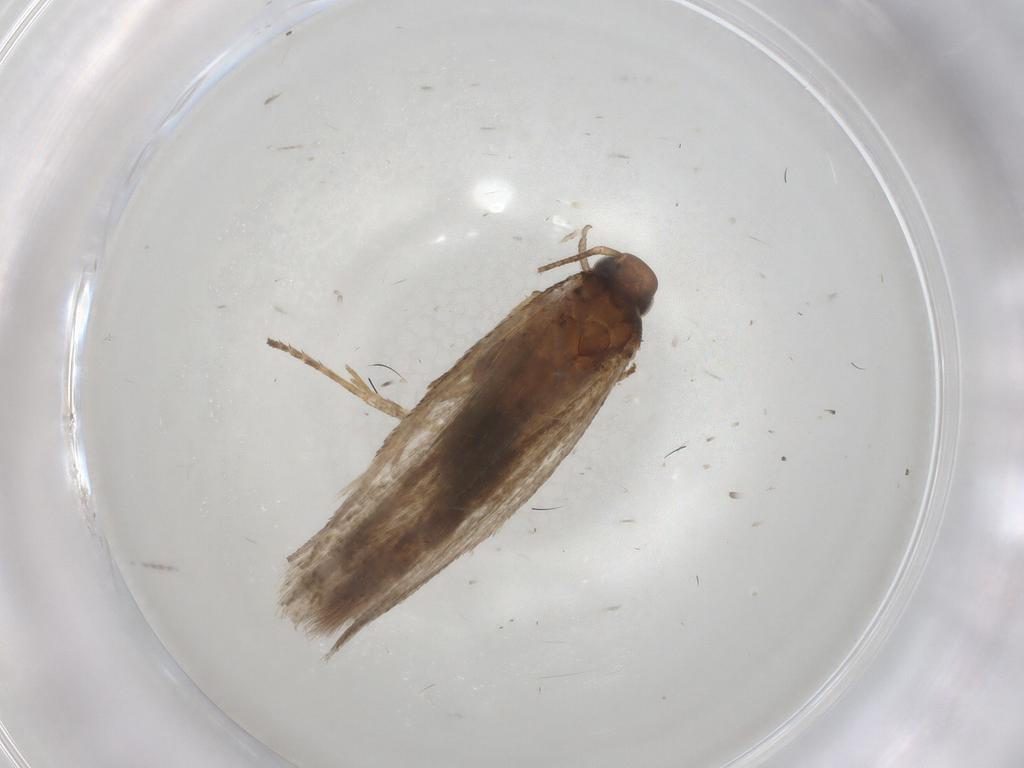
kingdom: Animalia
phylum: Arthropoda
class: Insecta
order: Lepidoptera
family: Gelechiidae
